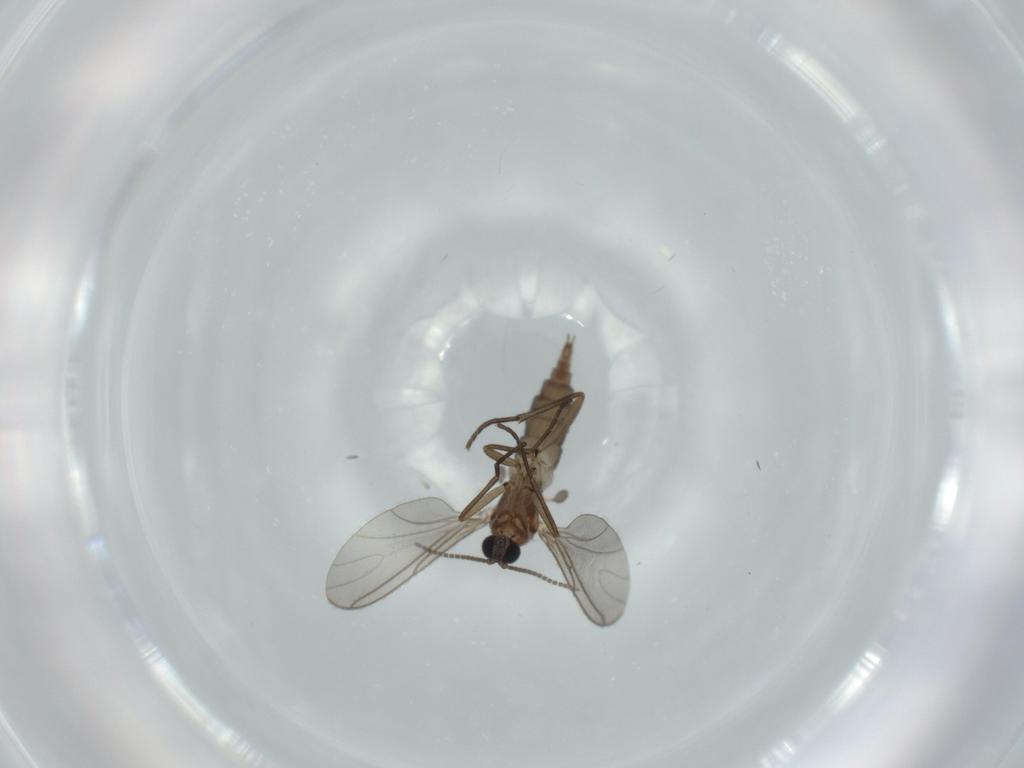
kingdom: Animalia
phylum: Arthropoda
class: Insecta
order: Diptera
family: Sciaridae
